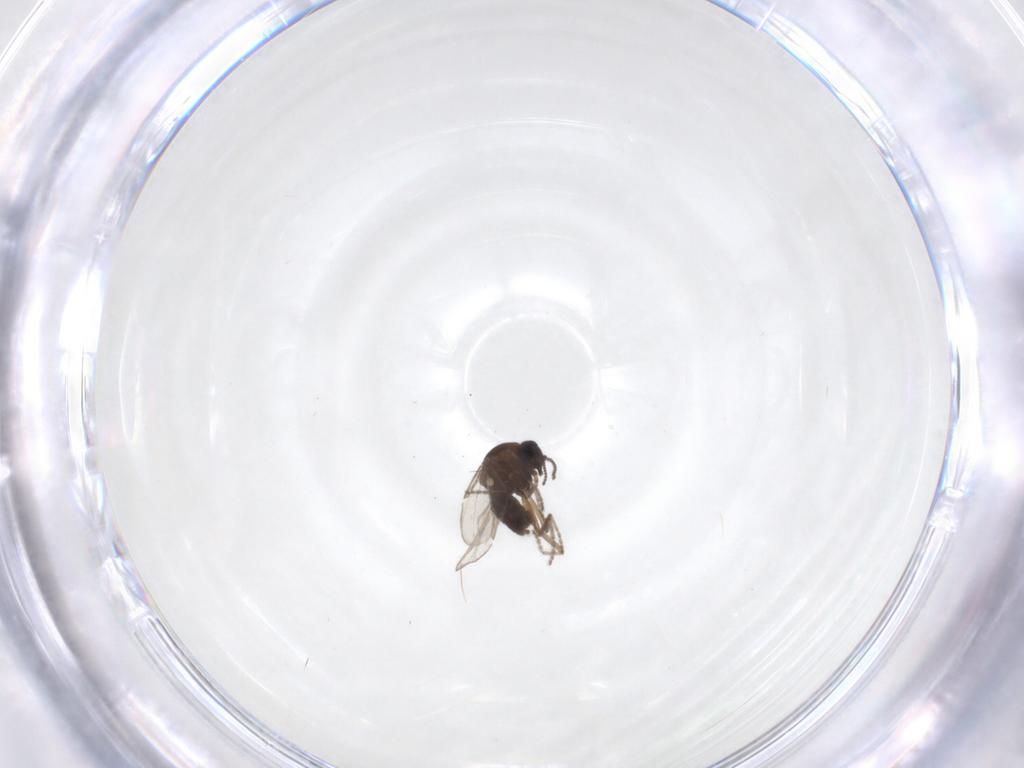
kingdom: Animalia
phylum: Arthropoda
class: Insecta
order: Diptera
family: Ceratopogonidae
